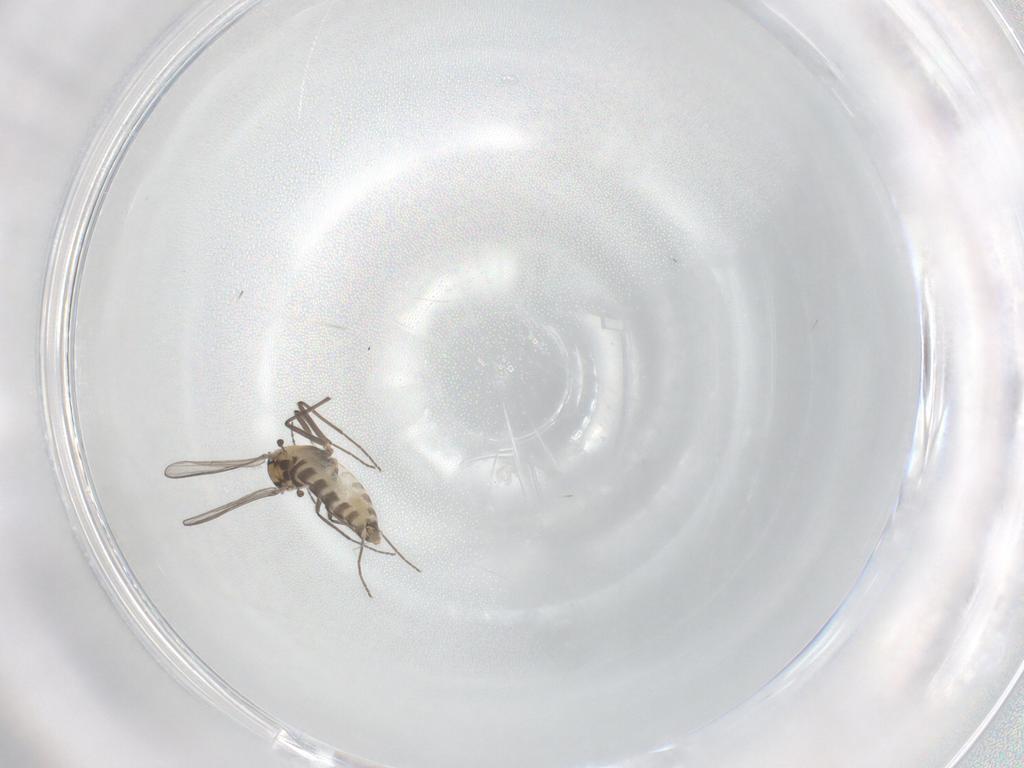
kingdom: Animalia
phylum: Arthropoda
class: Insecta
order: Diptera
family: Chironomidae
